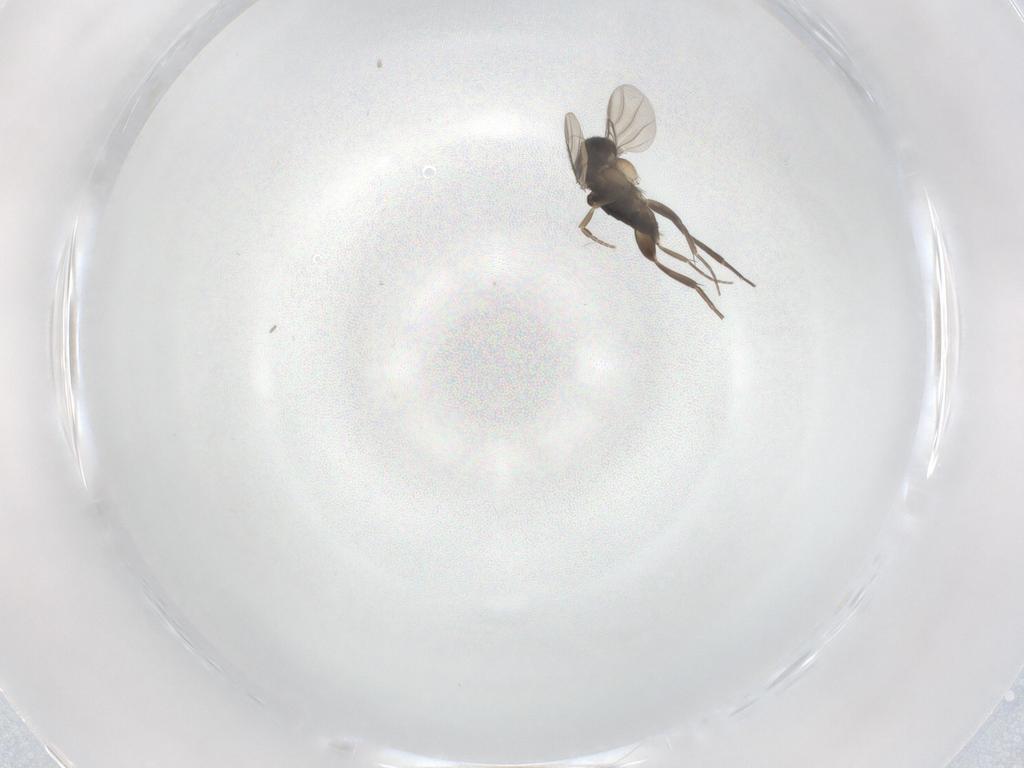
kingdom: Animalia
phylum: Arthropoda
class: Insecta
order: Diptera
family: Phoridae
